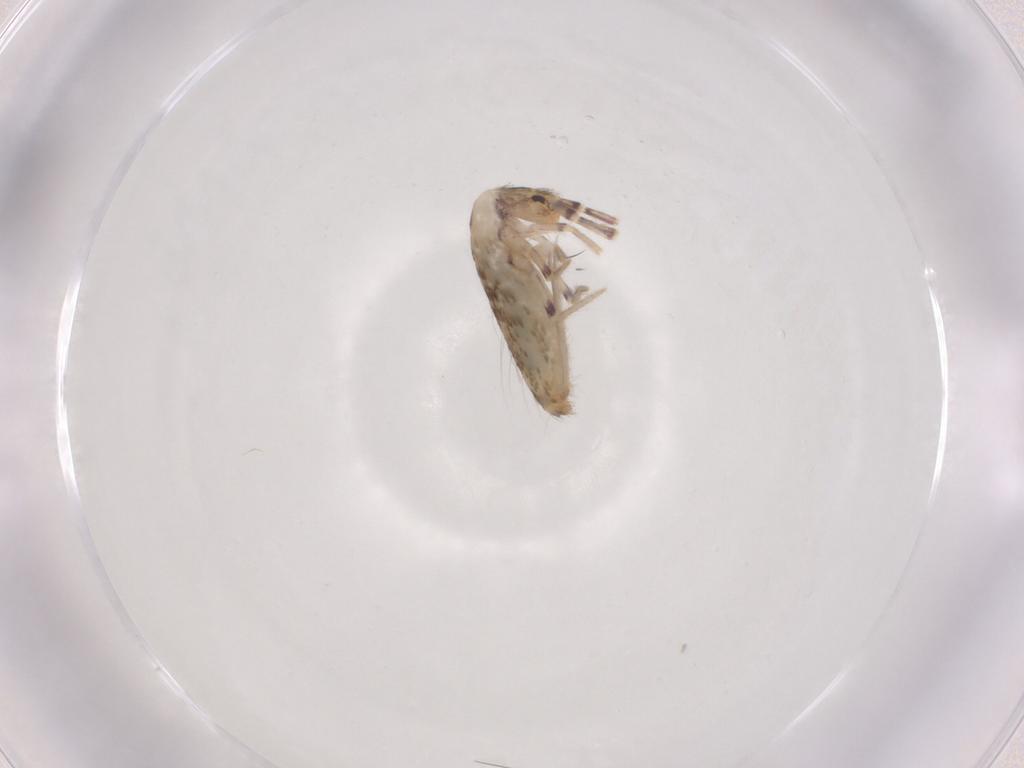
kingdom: Animalia
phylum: Arthropoda
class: Collembola
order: Entomobryomorpha
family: Entomobryidae
